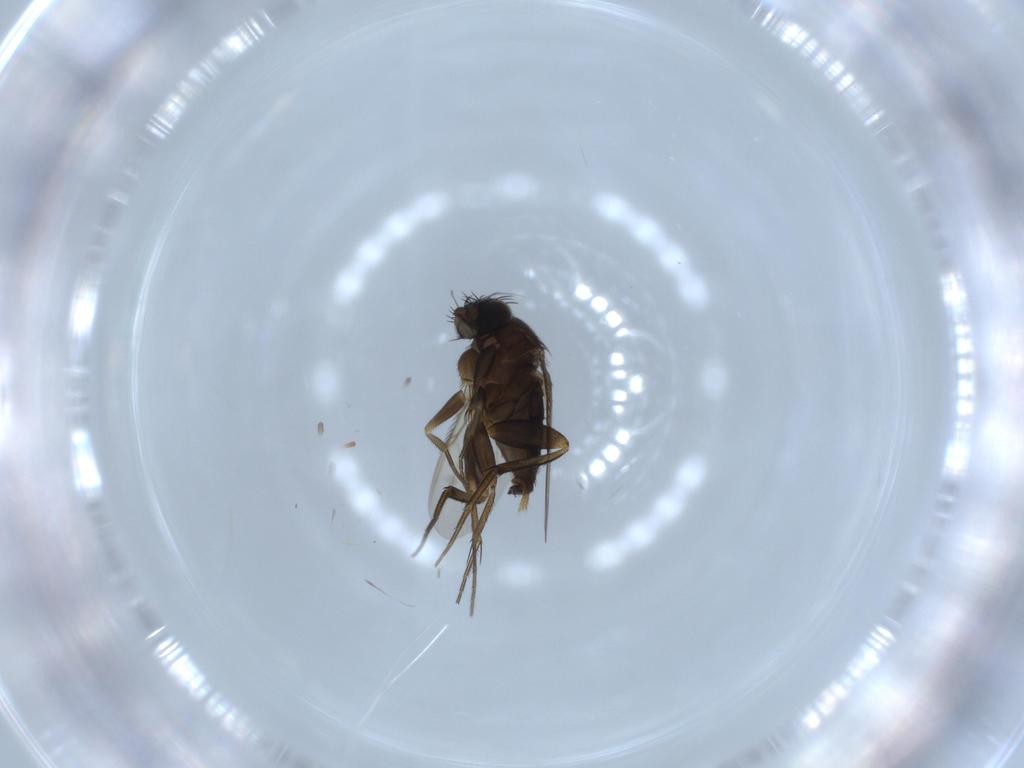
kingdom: Animalia
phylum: Arthropoda
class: Insecta
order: Diptera
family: Phoridae
